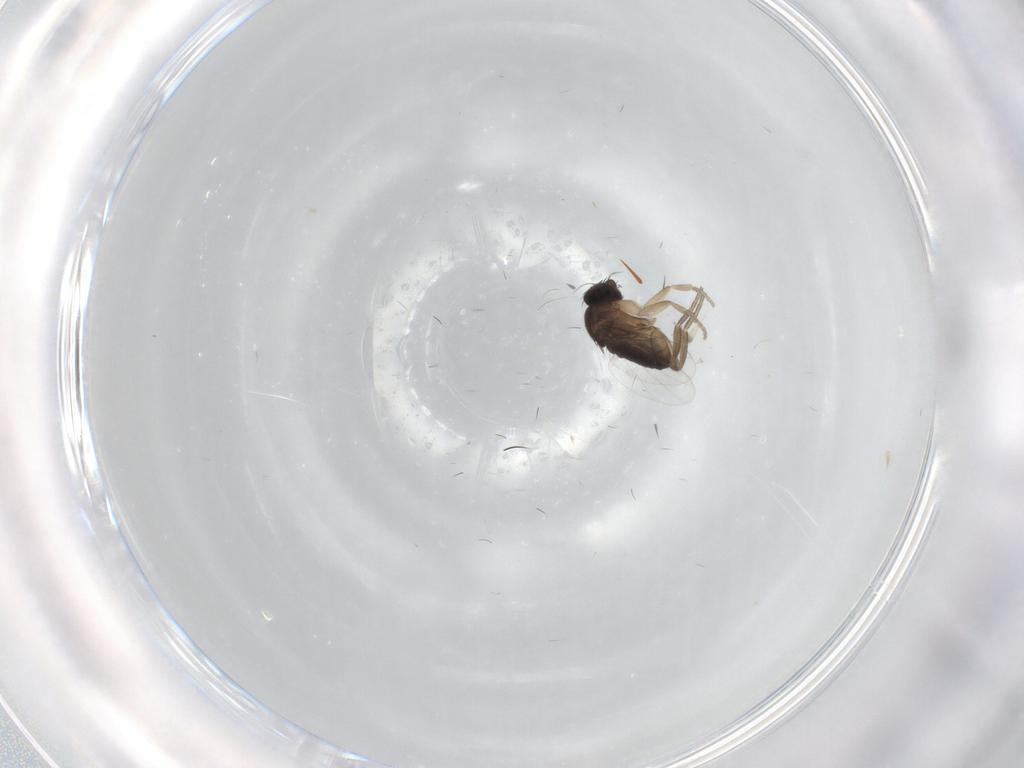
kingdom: Animalia
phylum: Arthropoda
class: Insecta
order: Diptera
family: Phoridae
